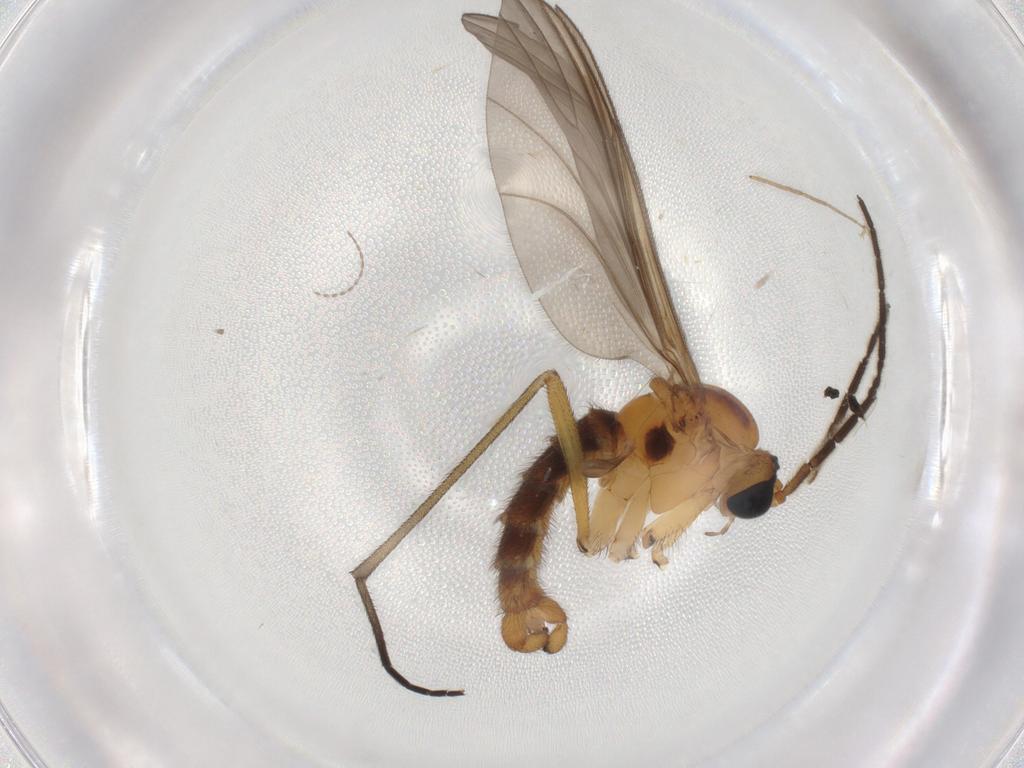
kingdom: Animalia
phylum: Arthropoda
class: Insecta
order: Diptera
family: Sciaridae
